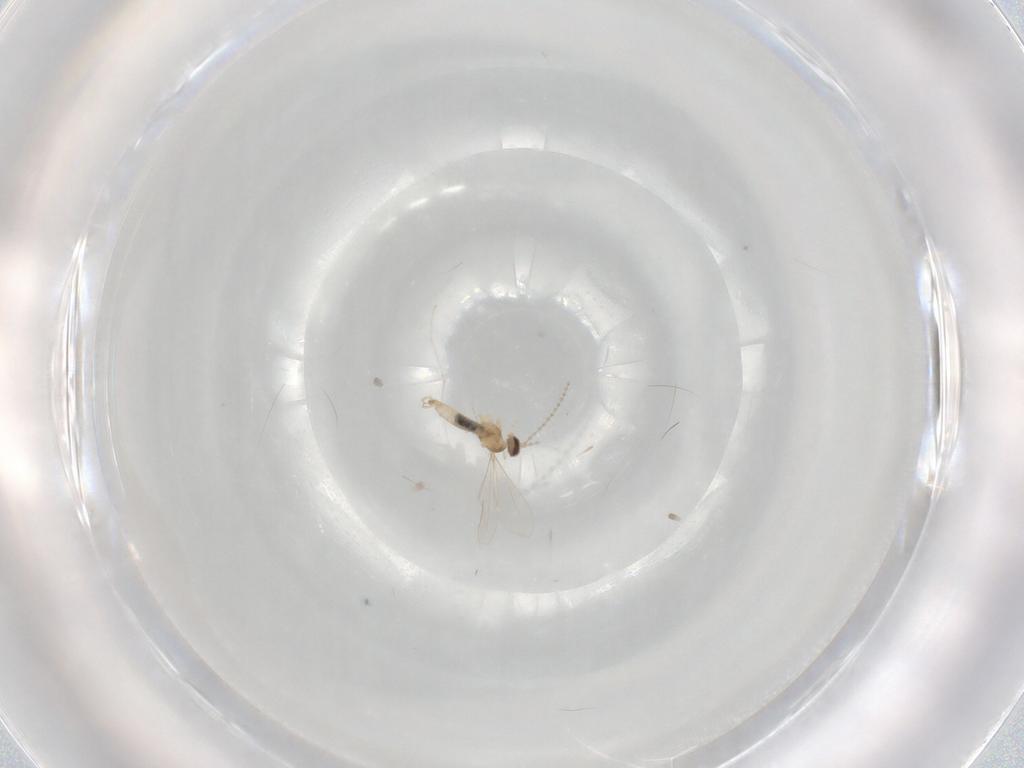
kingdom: Animalia
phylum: Arthropoda
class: Insecta
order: Diptera
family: Cecidomyiidae
